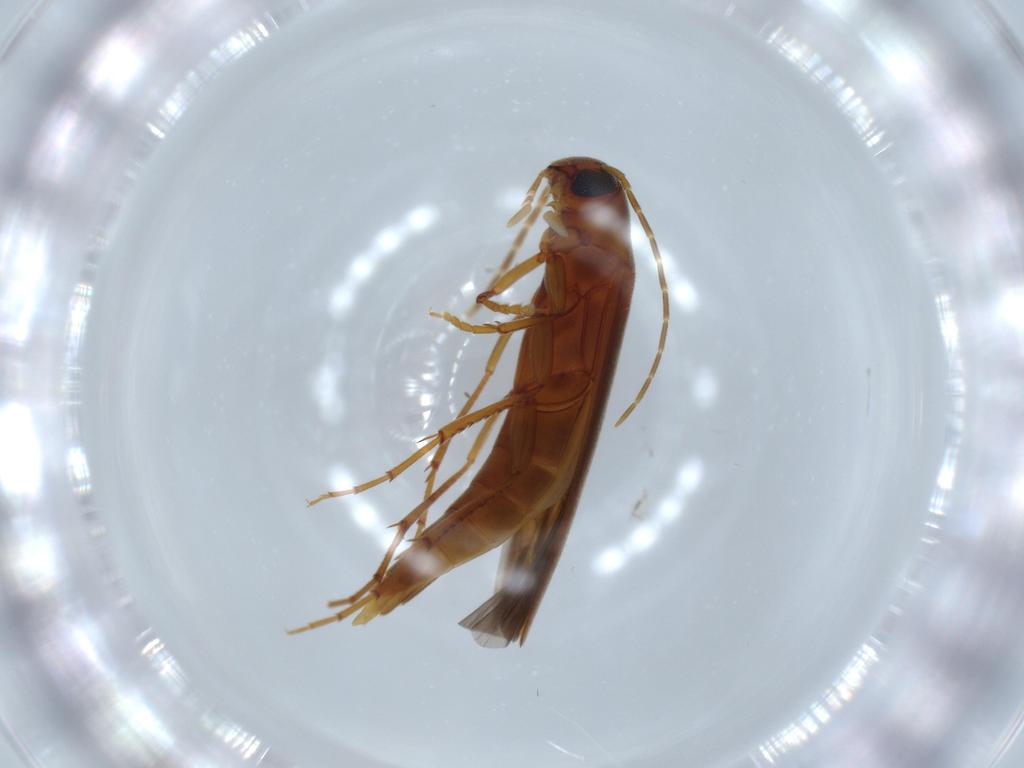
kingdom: Animalia
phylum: Arthropoda
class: Insecta
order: Coleoptera
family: Melandryidae
